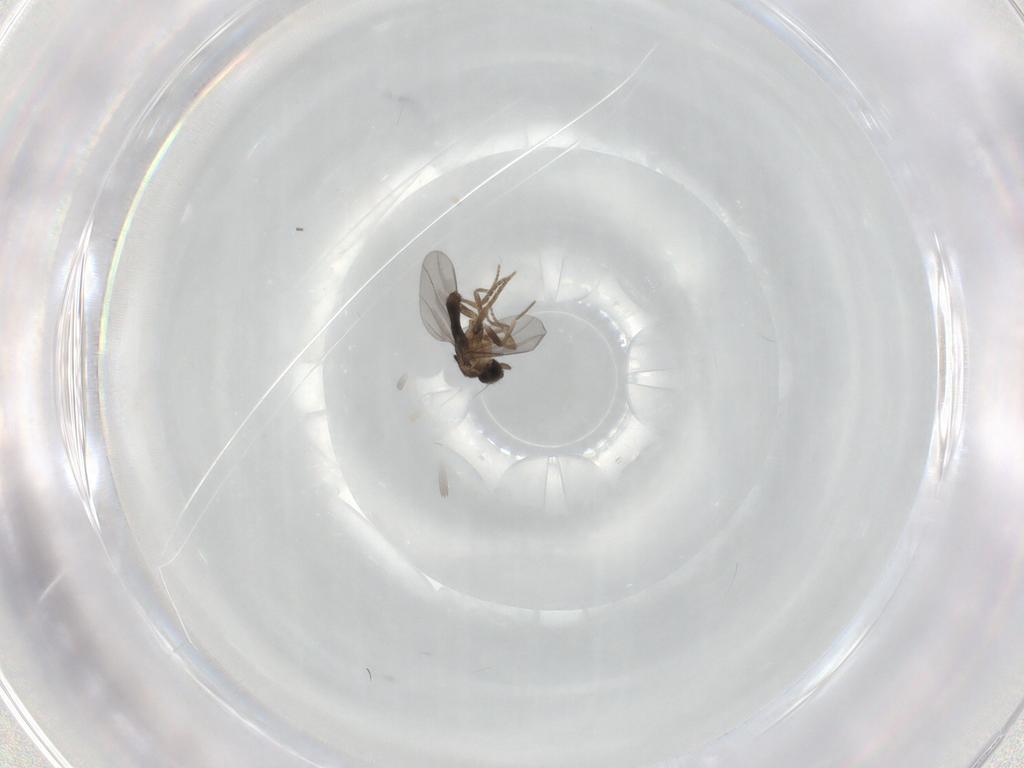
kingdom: Animalia
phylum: Arthropoda
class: Insecta
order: Diptera
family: Sciaridae
